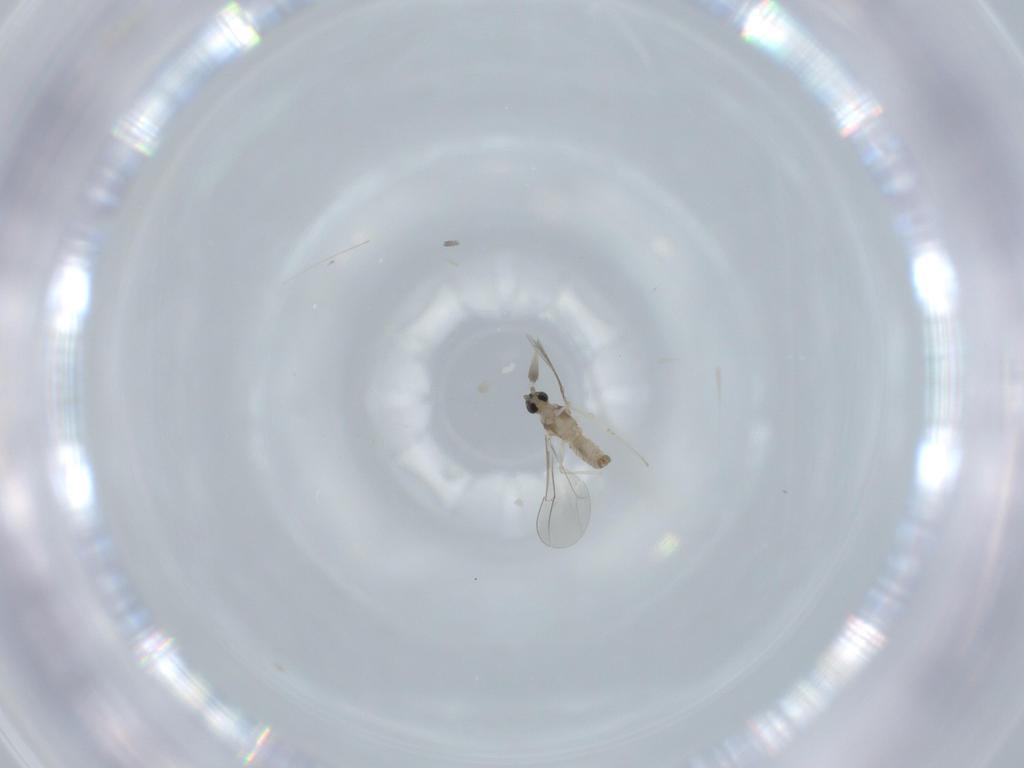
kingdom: Animalia
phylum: Arthropoda
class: Insecta
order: Diptera
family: Cecidomyiidae
